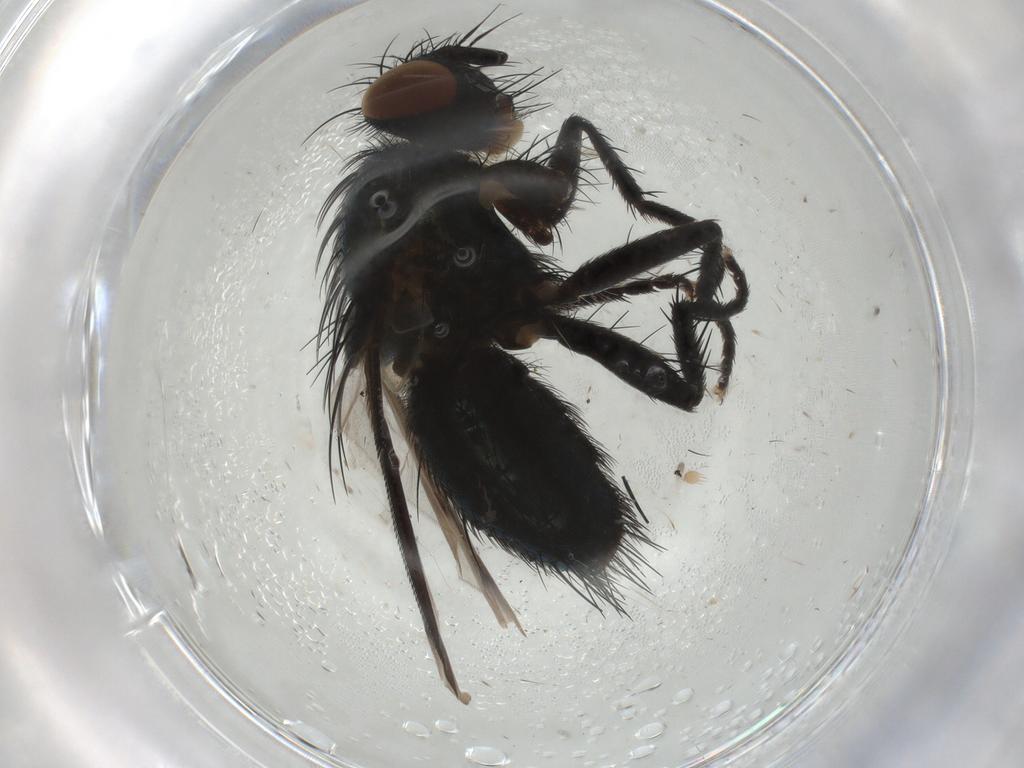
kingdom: Animalia
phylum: Arthropoda
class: Insecta
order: Diptera
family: Tachinidae
